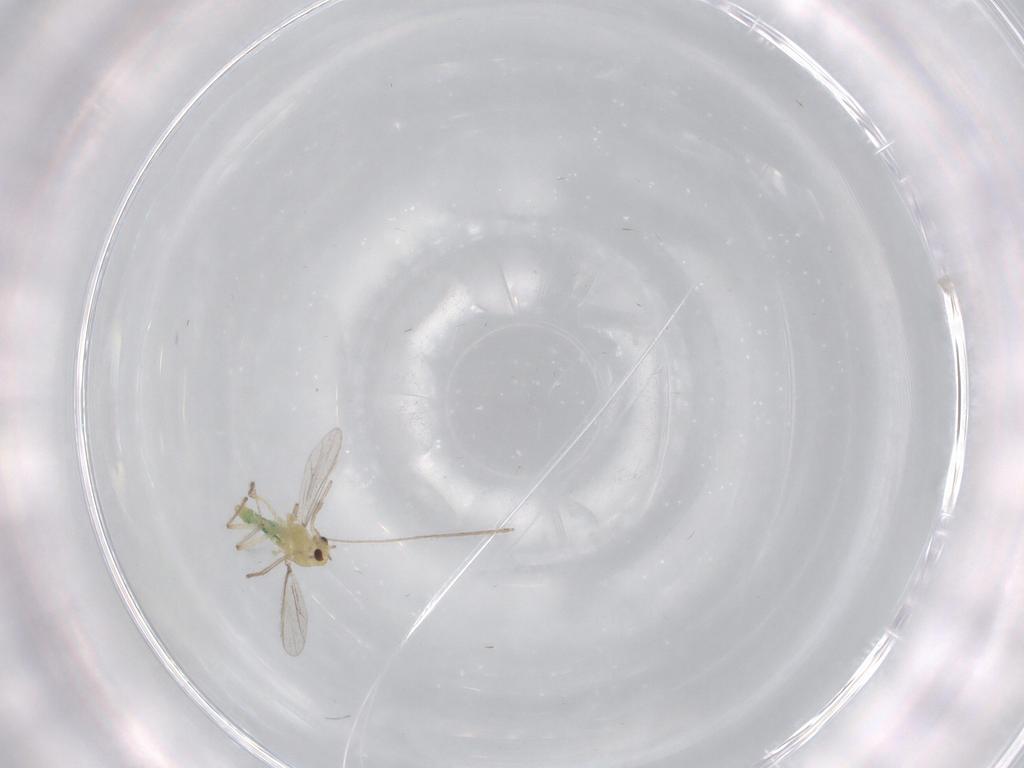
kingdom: Animalia
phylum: Arthropoda
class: Insecta
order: Diptera
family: Chironomidae
